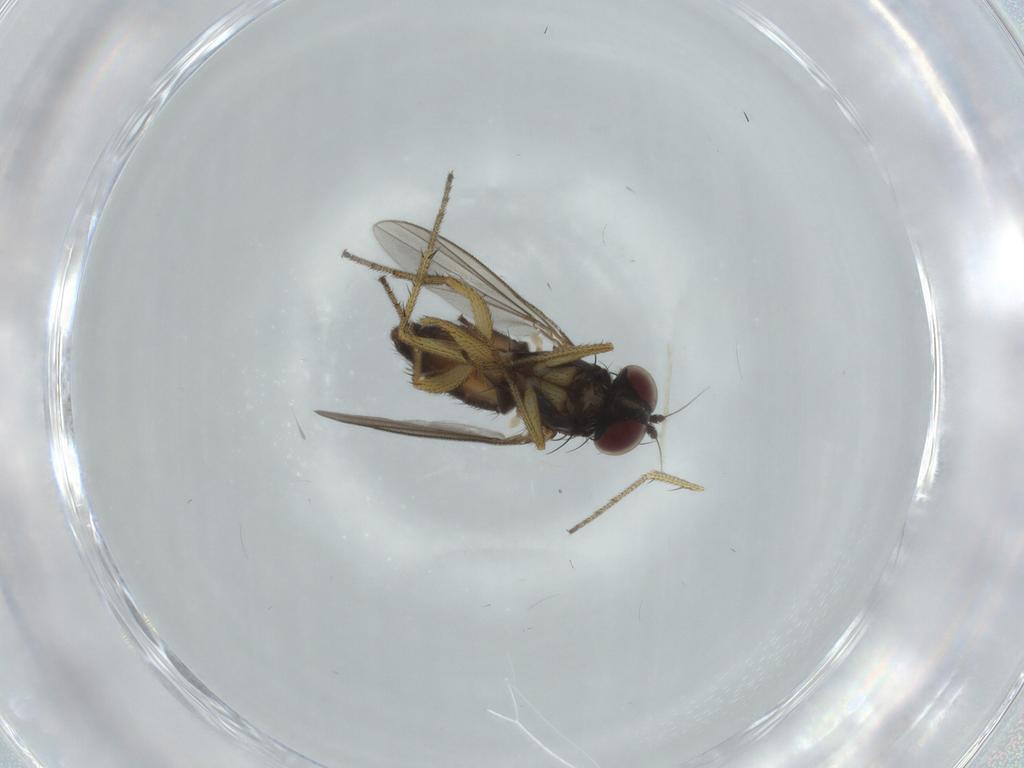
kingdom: Animalia
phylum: Arthropoda
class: Insecta
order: Diptera
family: Dolichopodidae
